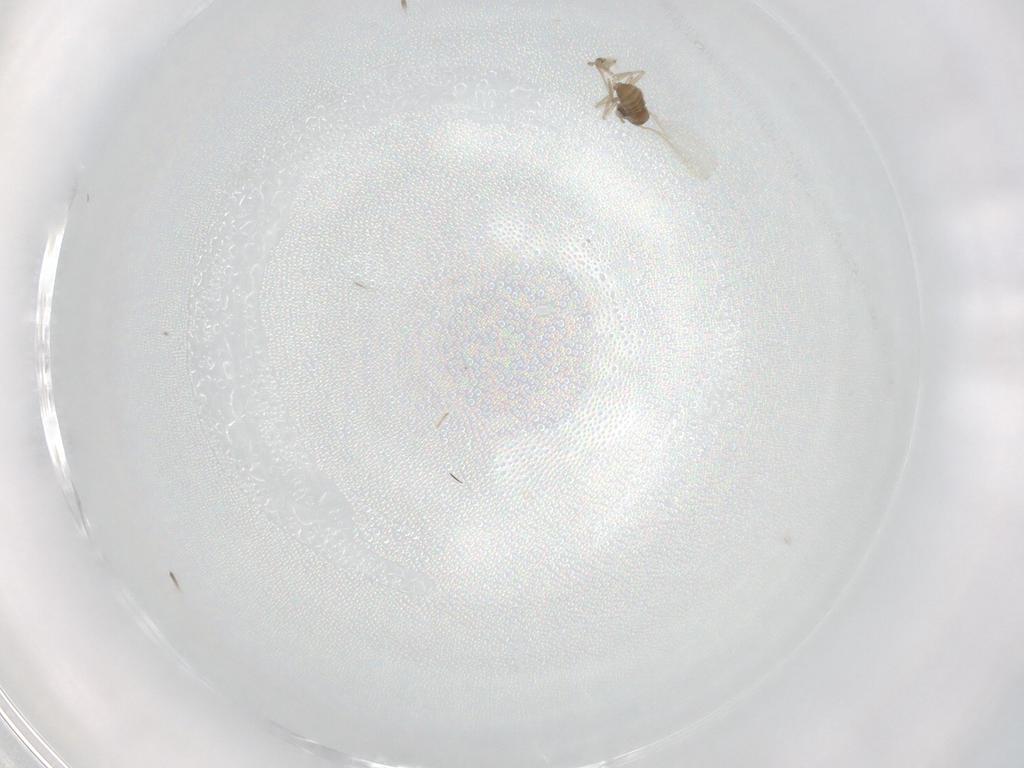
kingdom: Animalia
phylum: Arthropoda
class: Insecta
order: Diptera
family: Cecidomyiidae
